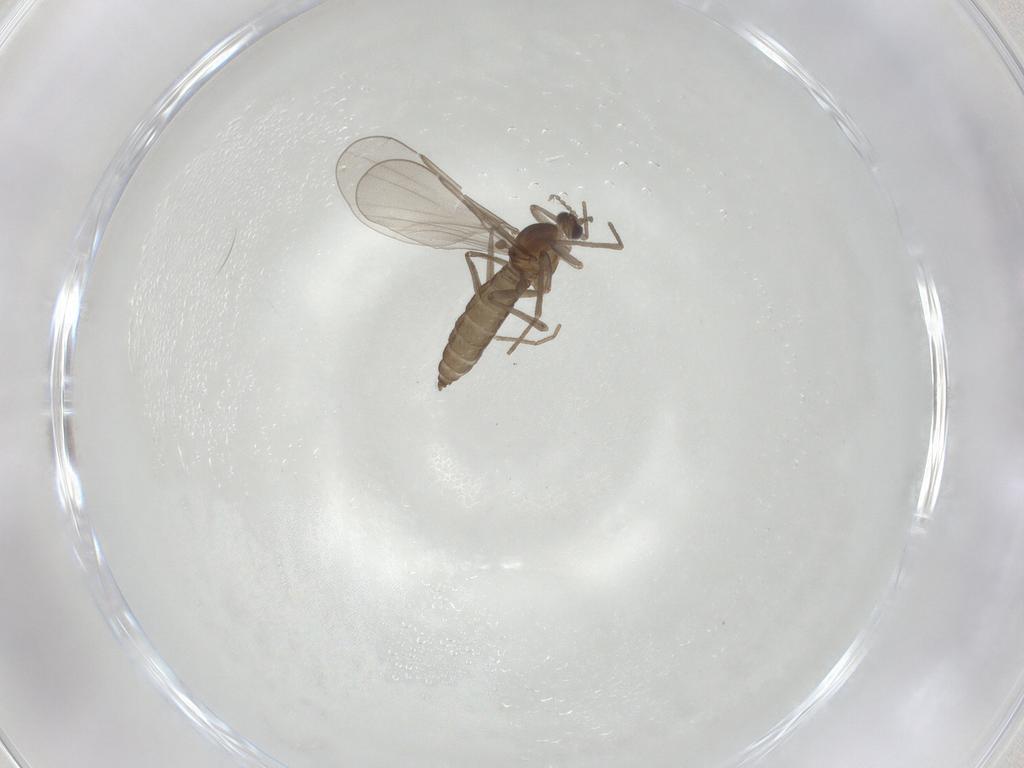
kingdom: Animalia
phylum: Arthropoda
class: Insecta
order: Diptera
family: Cecidomyiidae
